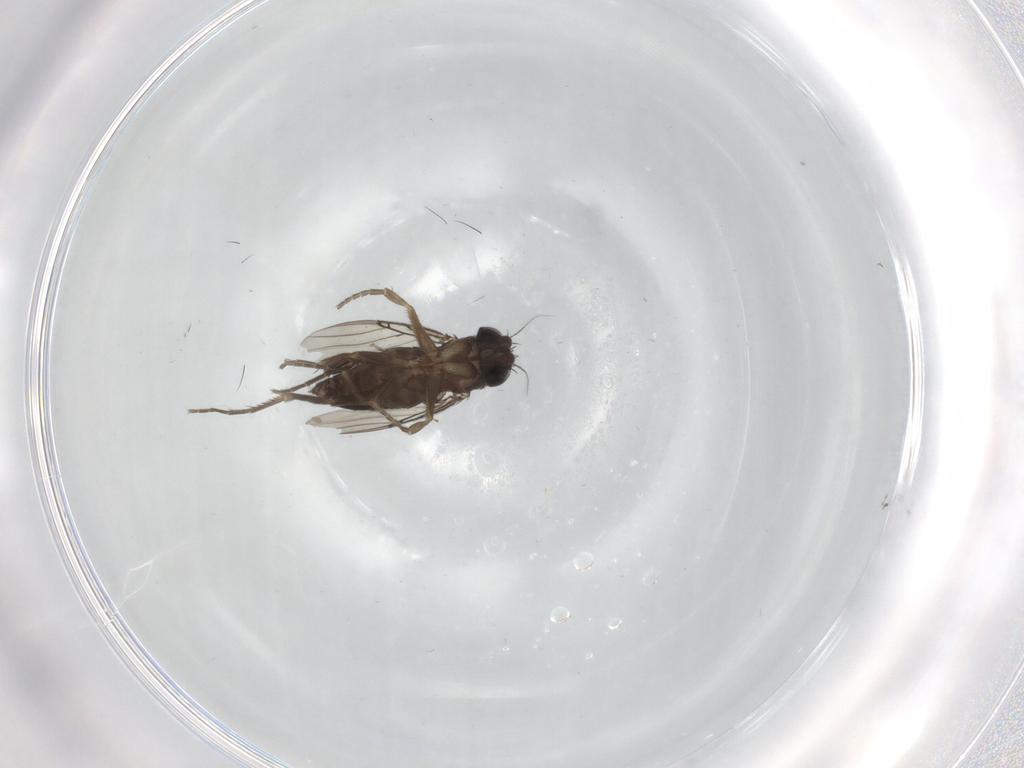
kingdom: Animalia
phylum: Arthropoda
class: Insecta
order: Diptera
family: Phoridae
